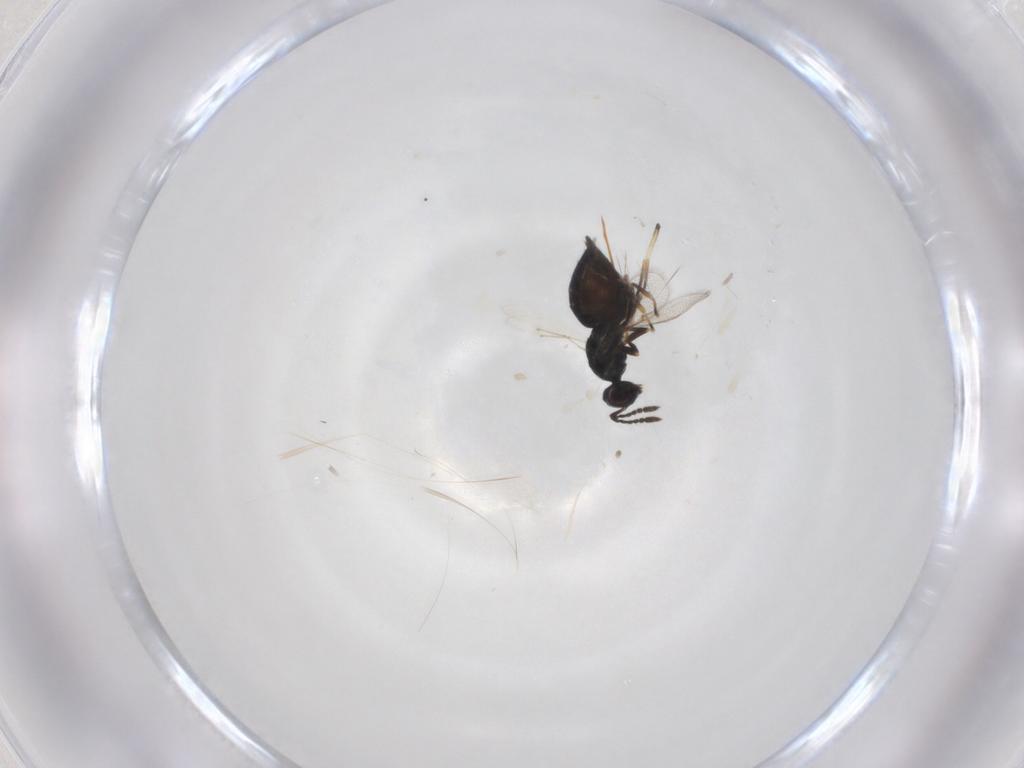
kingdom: Animalia
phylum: Arthropoda
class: Insecta
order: Hymenoptera
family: Eulophidae
